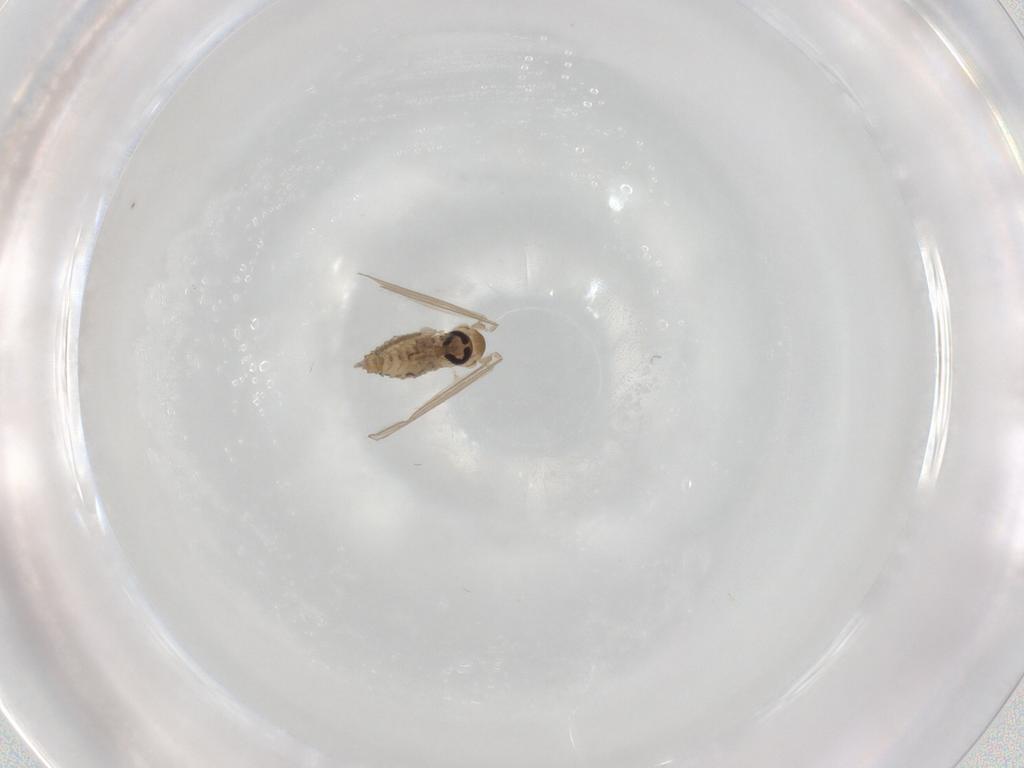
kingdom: Animalia
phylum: Arthropoda
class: Insecta
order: Diptera
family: Psychodidae
